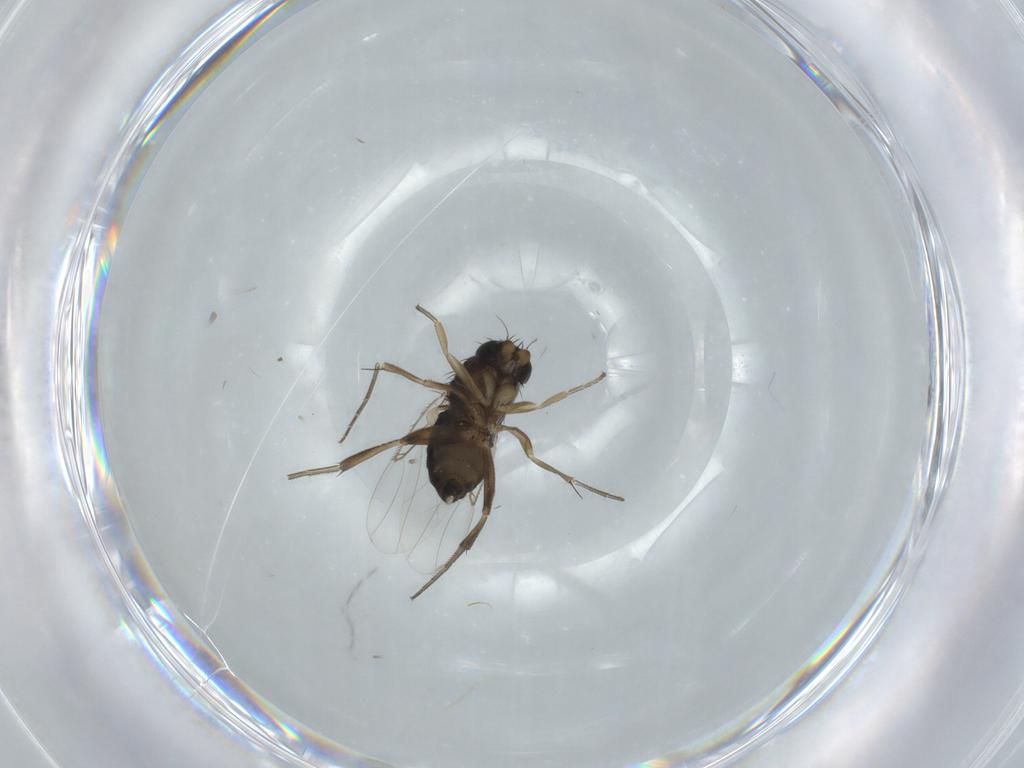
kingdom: Animalia
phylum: Arthropoda
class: Insecta
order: Diptera
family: Phoridae
